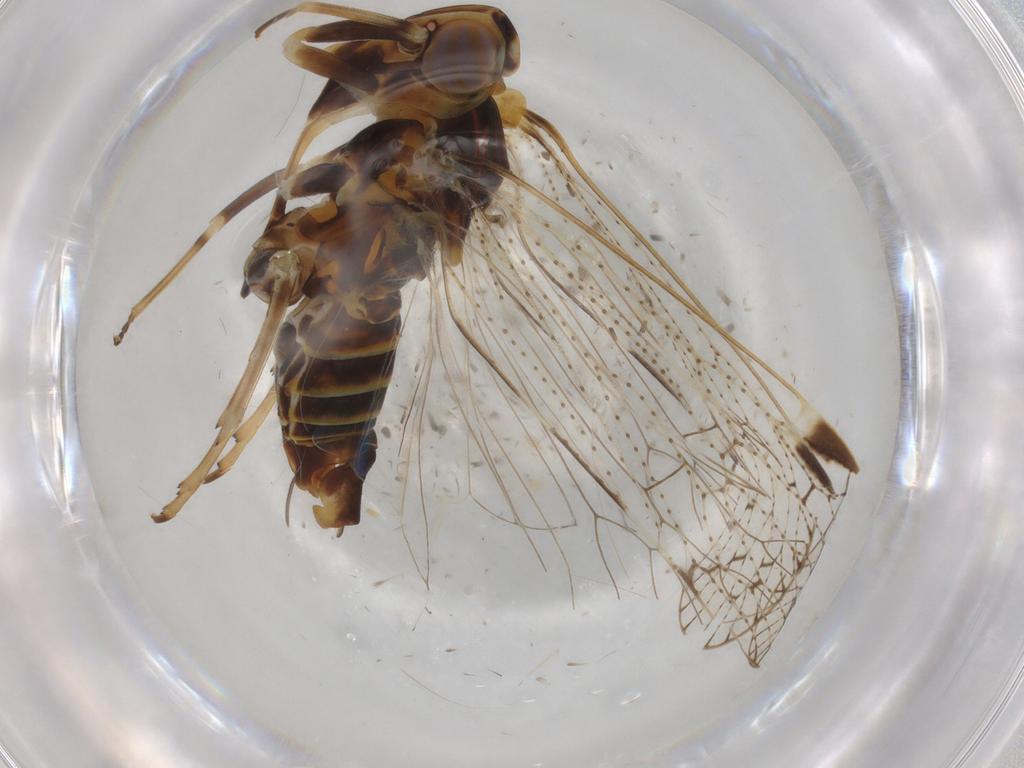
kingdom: Animalia
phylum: Arthropoda
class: Insecta
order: Hemiptera
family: Cixiidae
